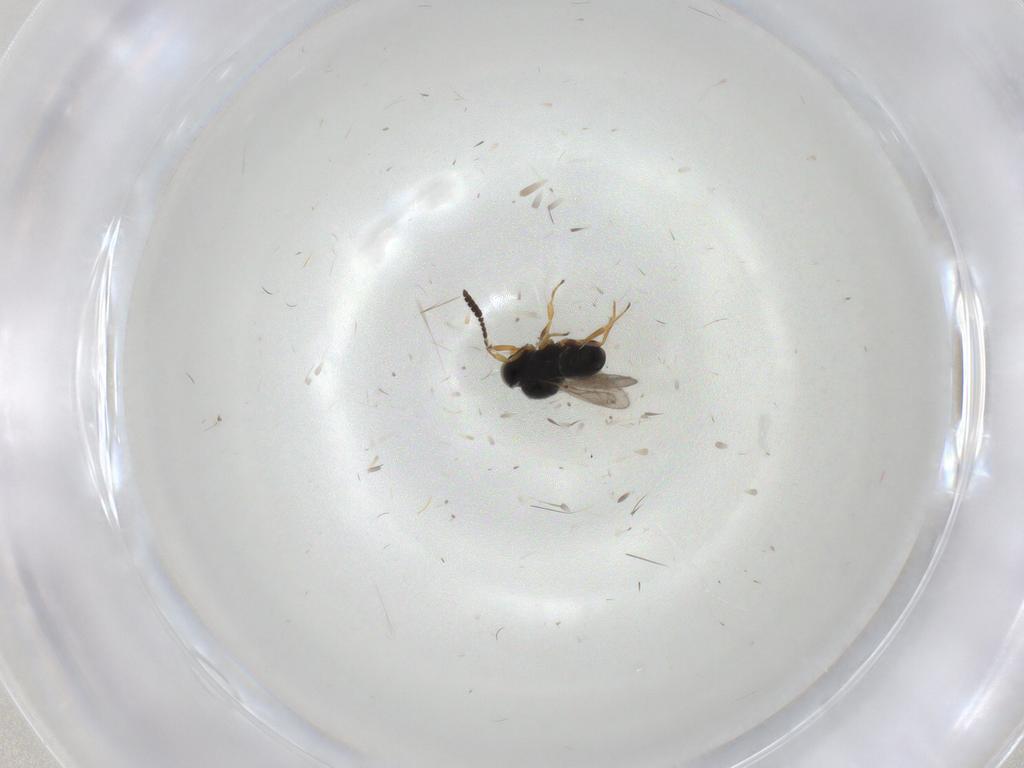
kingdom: Animalia
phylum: Arthropoda
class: Insecta
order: Hymenoptera
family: Scelionidae
